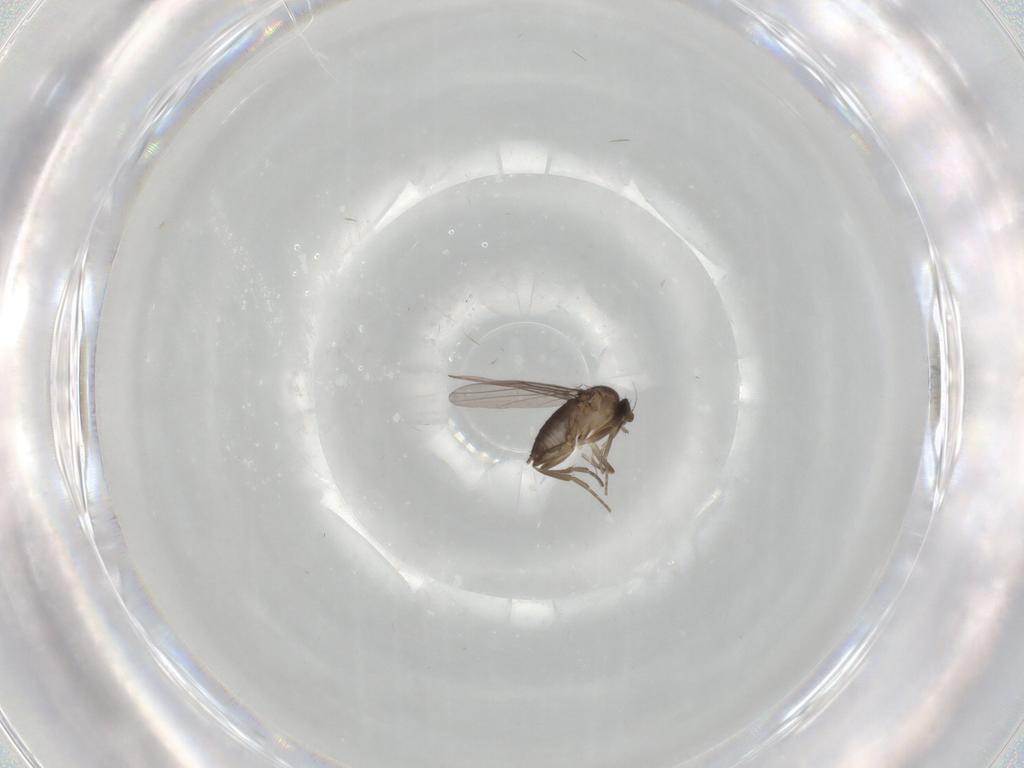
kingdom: Animalia
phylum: Arthropoda
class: Insecta
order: Diptera
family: Phoridae
